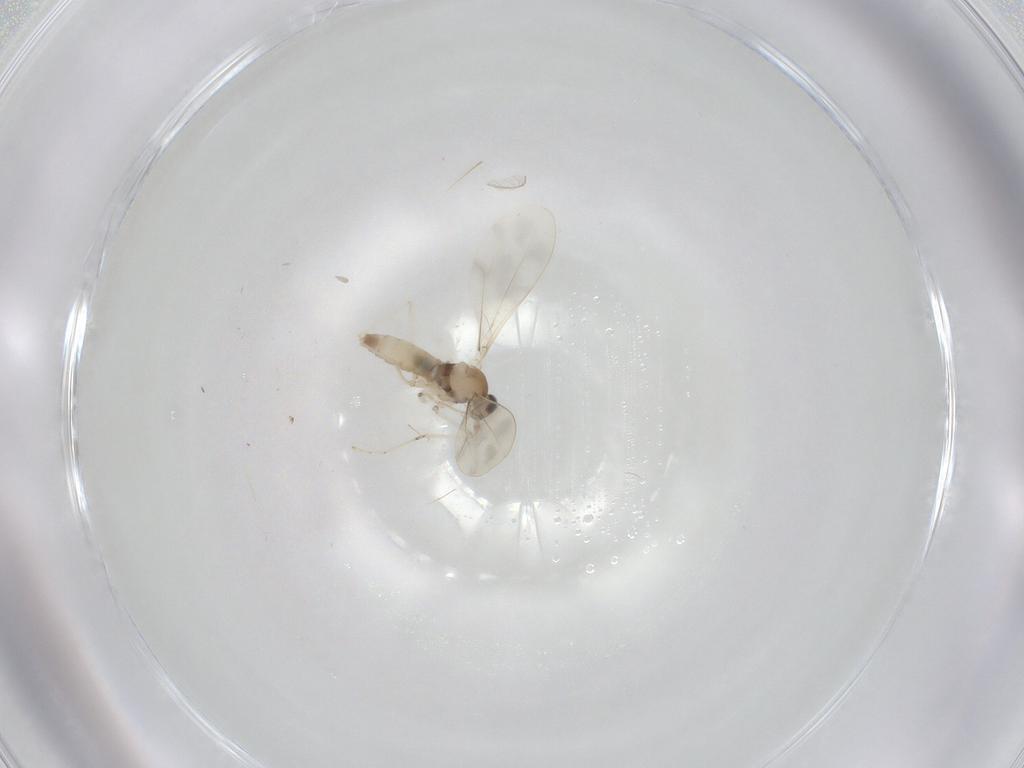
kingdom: Animalia
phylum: Arthropoda
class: Insecta
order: Diptera
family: Cecidomyiidae
